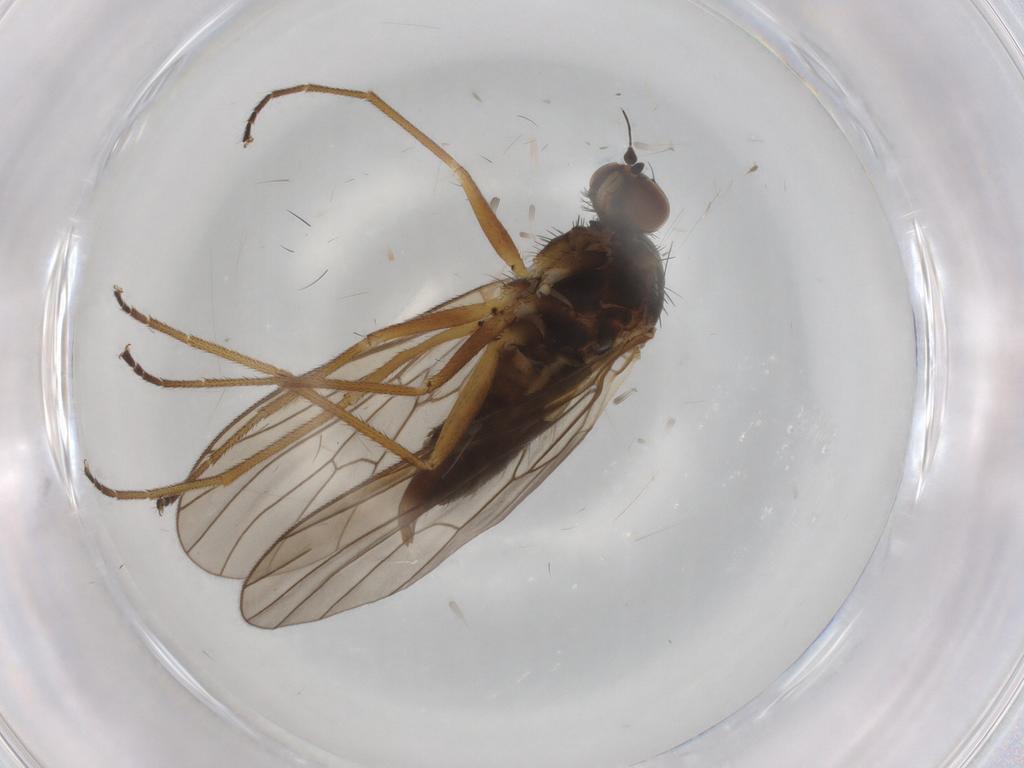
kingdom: Animalia
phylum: Arthropoda
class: Insecta
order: Diptera
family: Brachystomatidae
